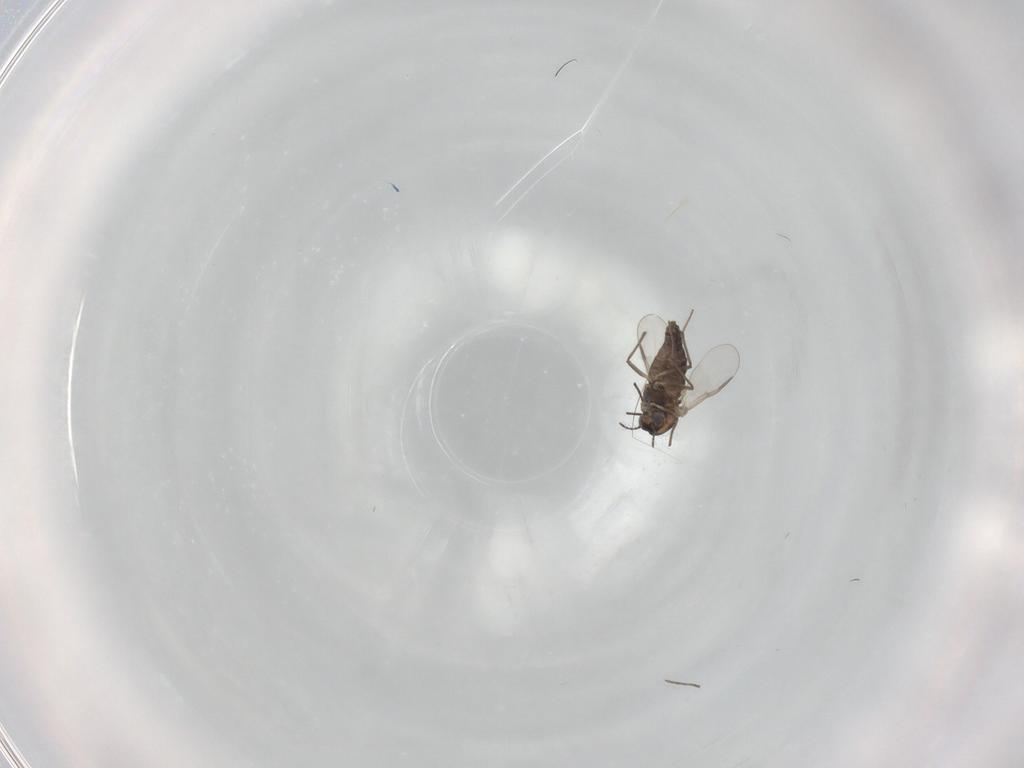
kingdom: Animalia
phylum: Arthropoda
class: Insecta
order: Diptera
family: Chironomidae
